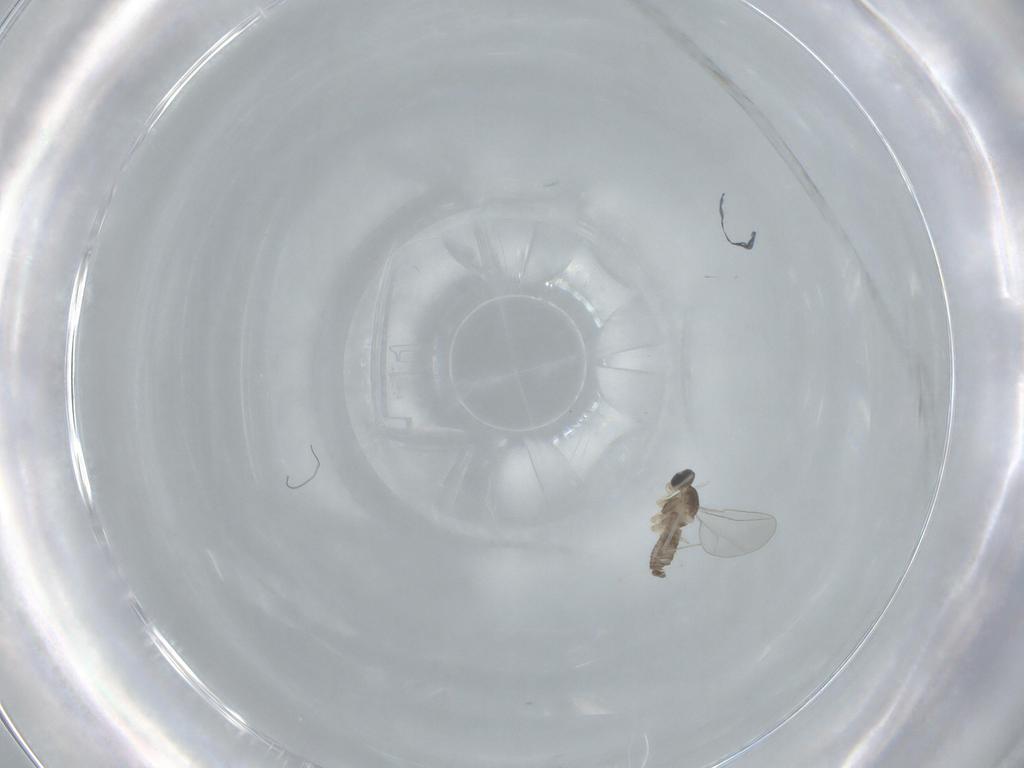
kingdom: Animalia
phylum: Arthropoda
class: Insecta
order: Diptera
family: Cecidomyiidae
